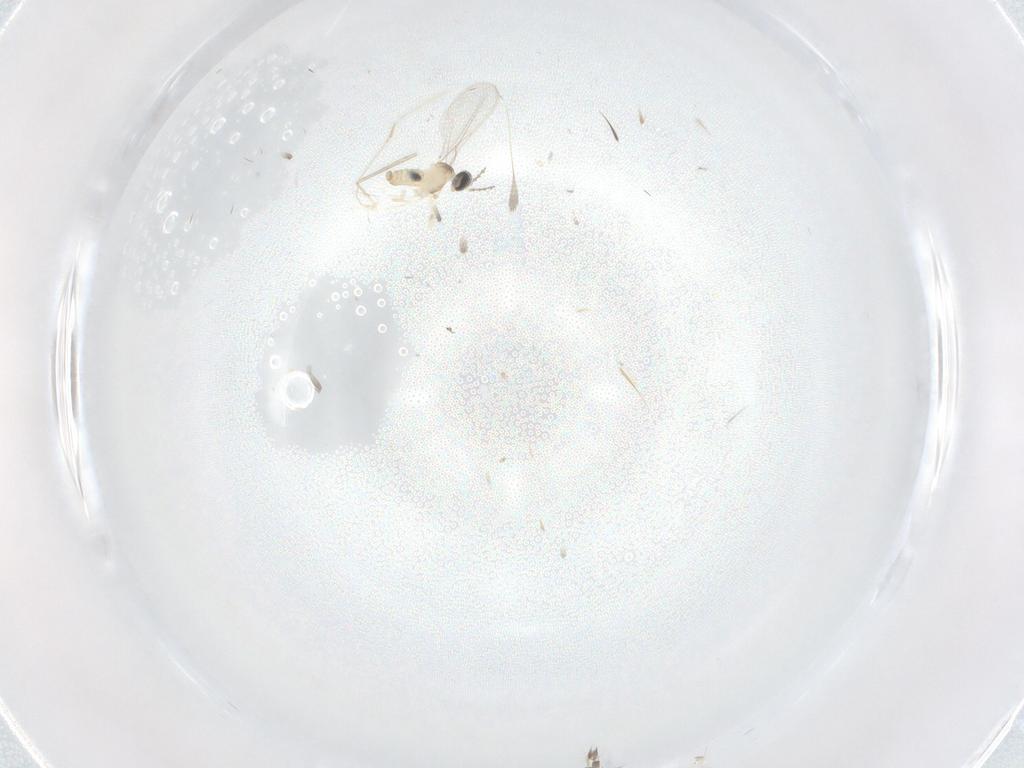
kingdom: Animalia
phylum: Arthropoda
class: Insecta
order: Diptera
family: Cecidomyiidae
